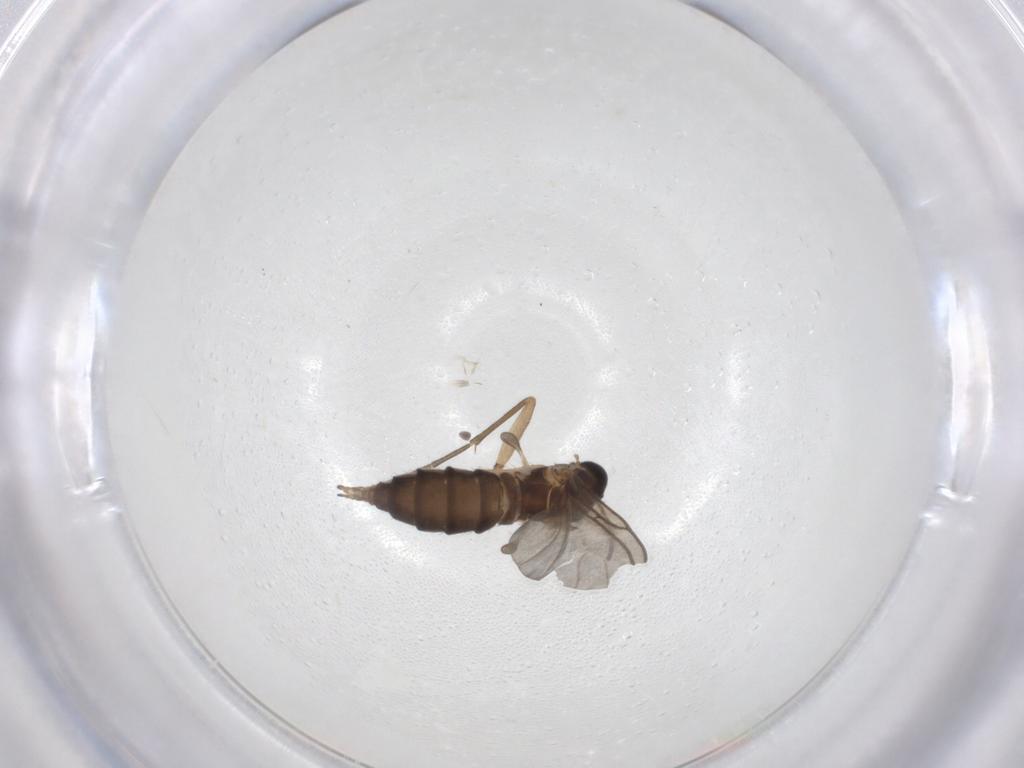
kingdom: Animalia
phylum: Arthropoda
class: Insecta
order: Diptera
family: Sciaridae
